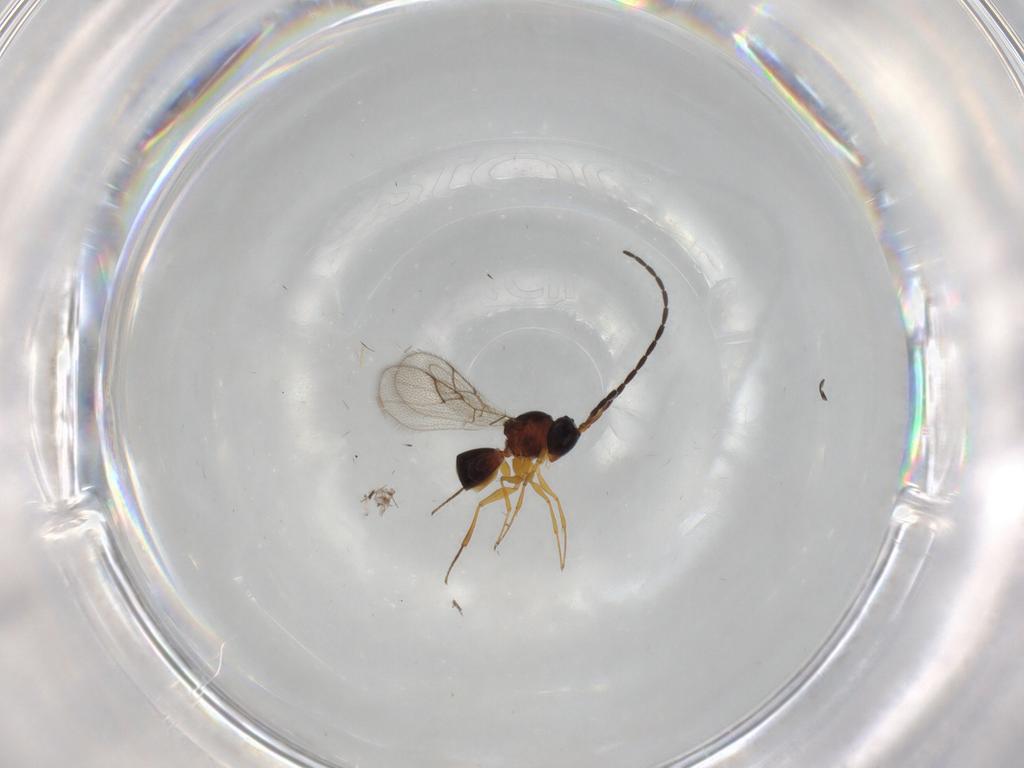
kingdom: Animalia
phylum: Arthropoda
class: Insecta
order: Hymenoptera
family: Figitidae
